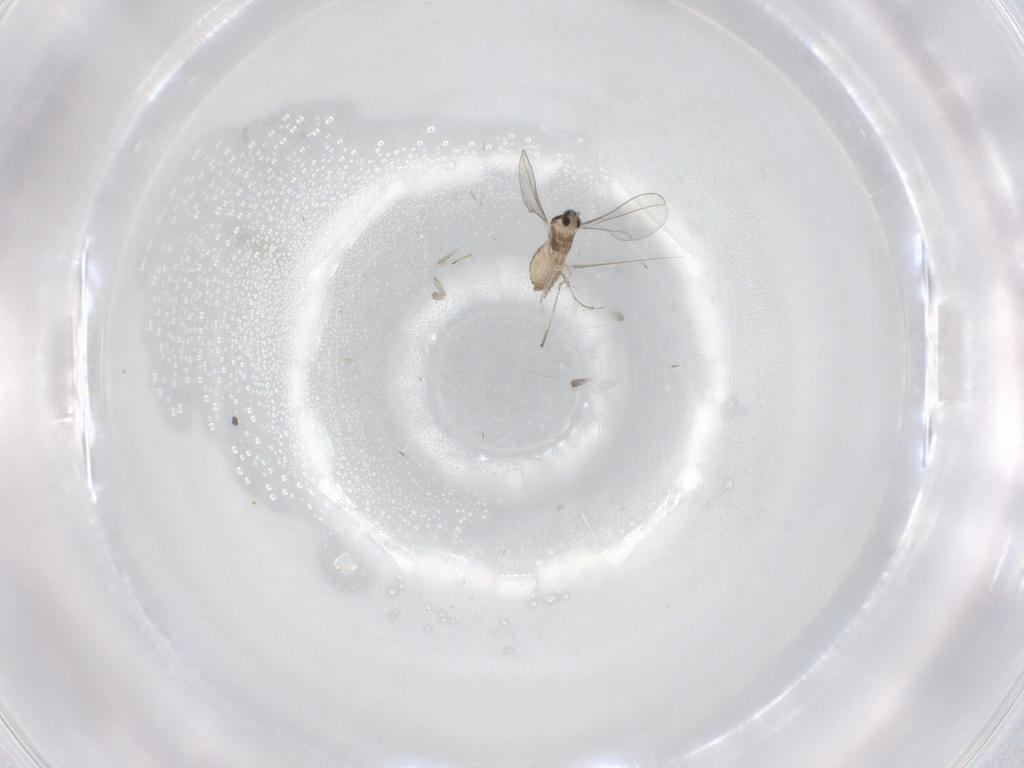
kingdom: Animalia
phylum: Arthropoda
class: Insecta
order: Diptera
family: Cecidomyiidae
